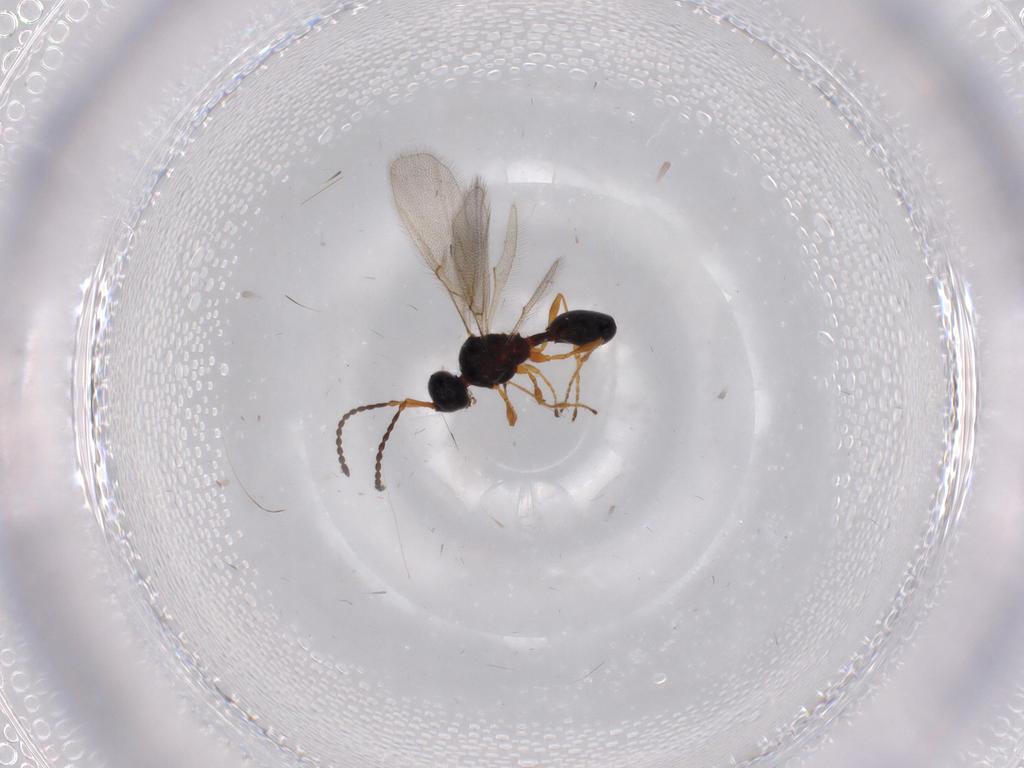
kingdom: Animalia
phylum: Arthropoda
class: Insecta
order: Hymenoptera
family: Diapriidae
